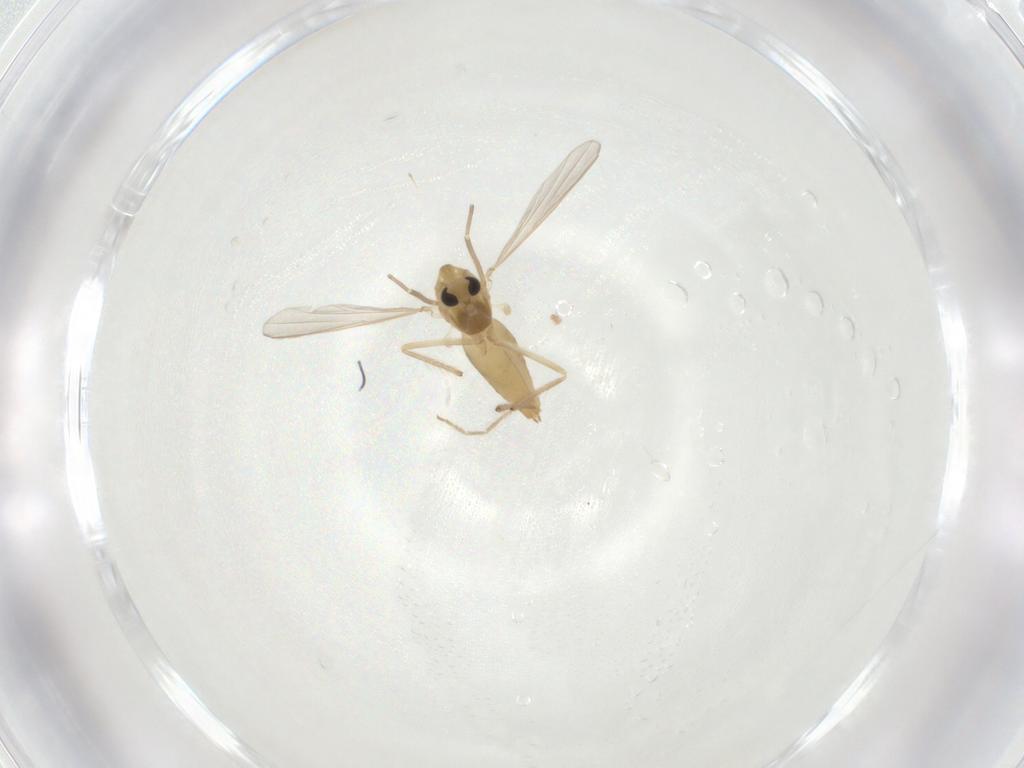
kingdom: Animalia
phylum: Arthropoda
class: Insecta
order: Diptera
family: Chironomidae
